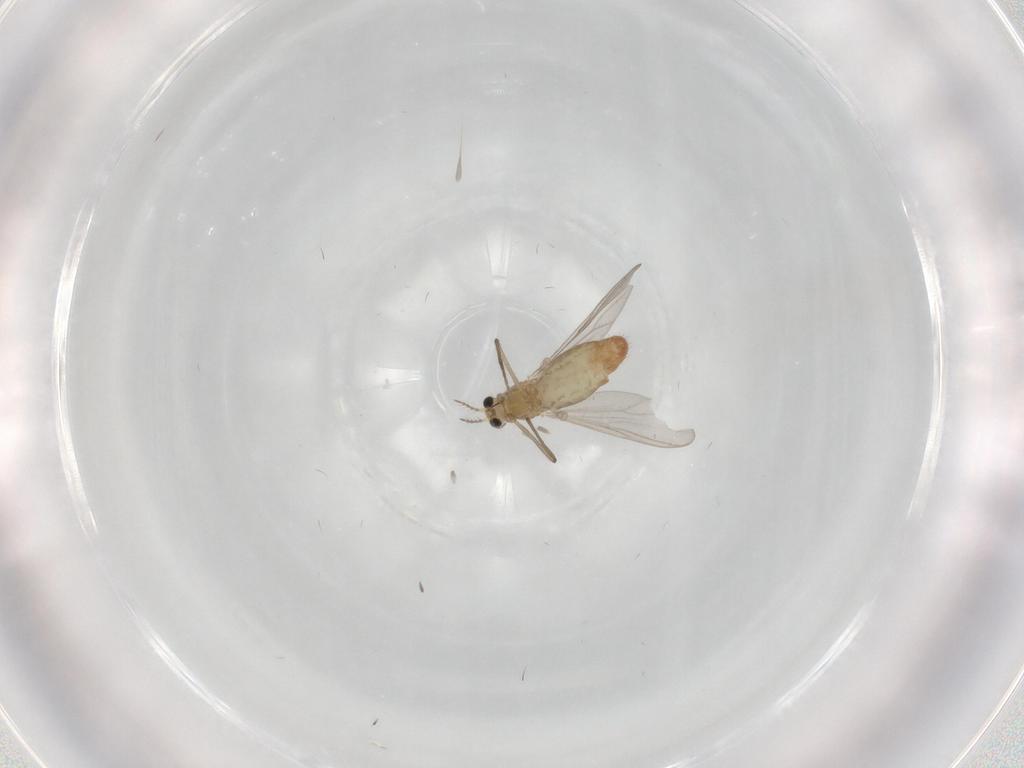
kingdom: Animalia
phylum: Arthropoda
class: Insecta
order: Diptera
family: Chironomidae
